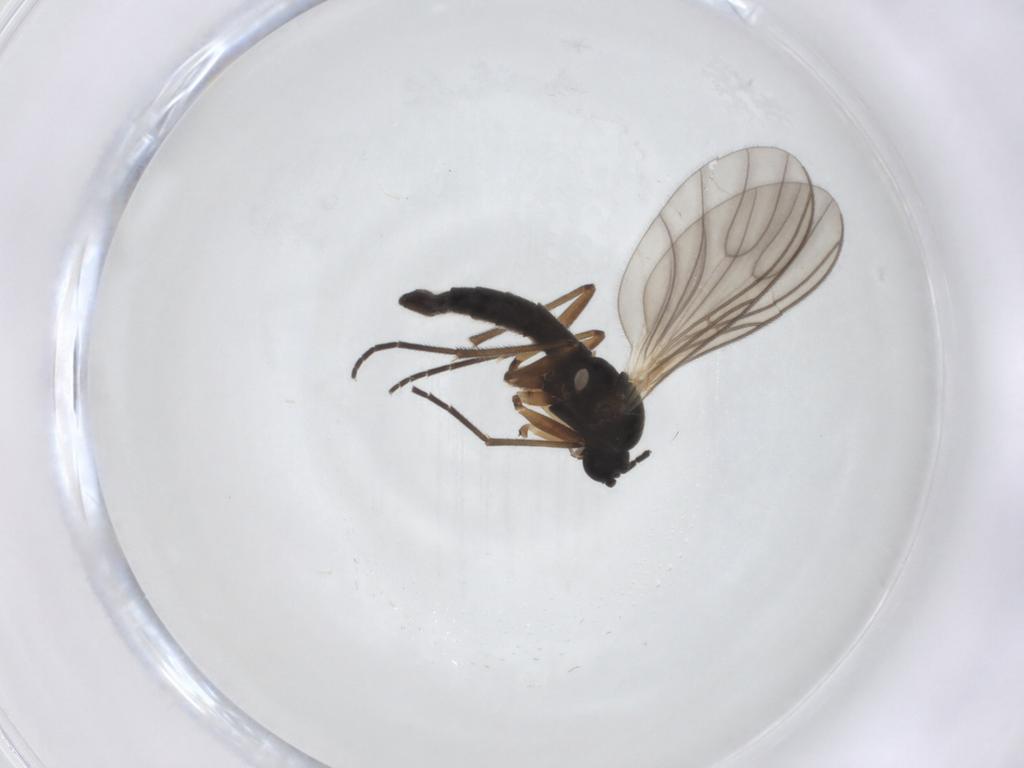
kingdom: Animalia
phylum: Arthropoda
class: Insecta
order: Diptera
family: Sciaridae
